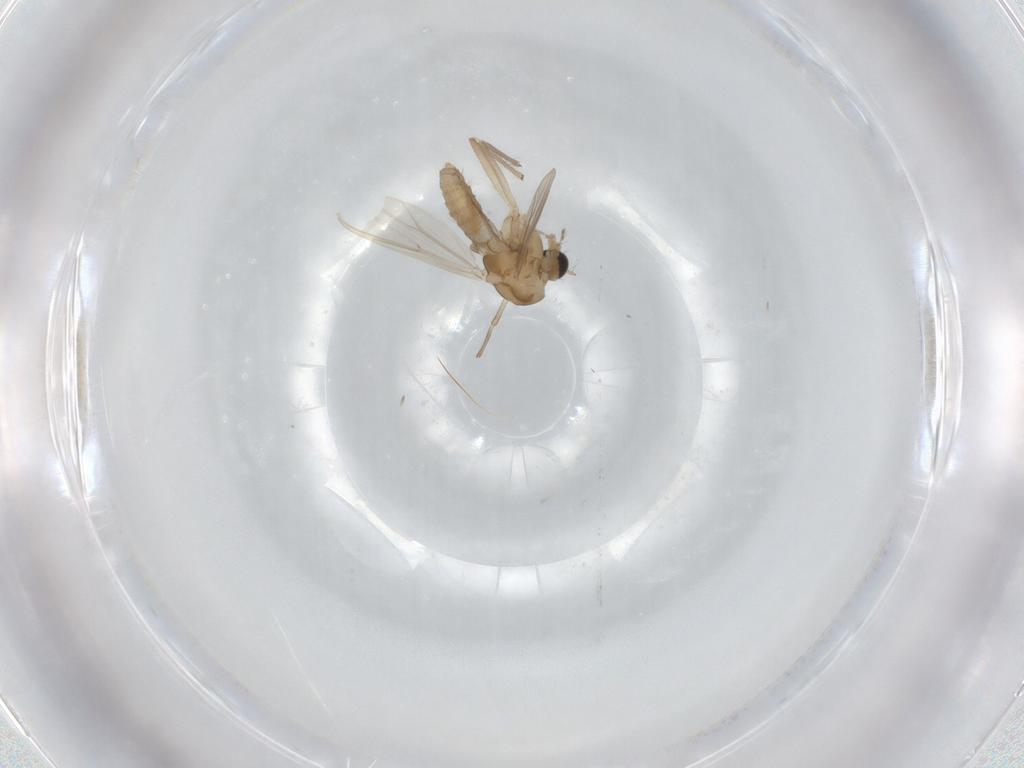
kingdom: Animalia
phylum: Arthropoda
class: Insecta
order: Diptera
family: Chironomidae
